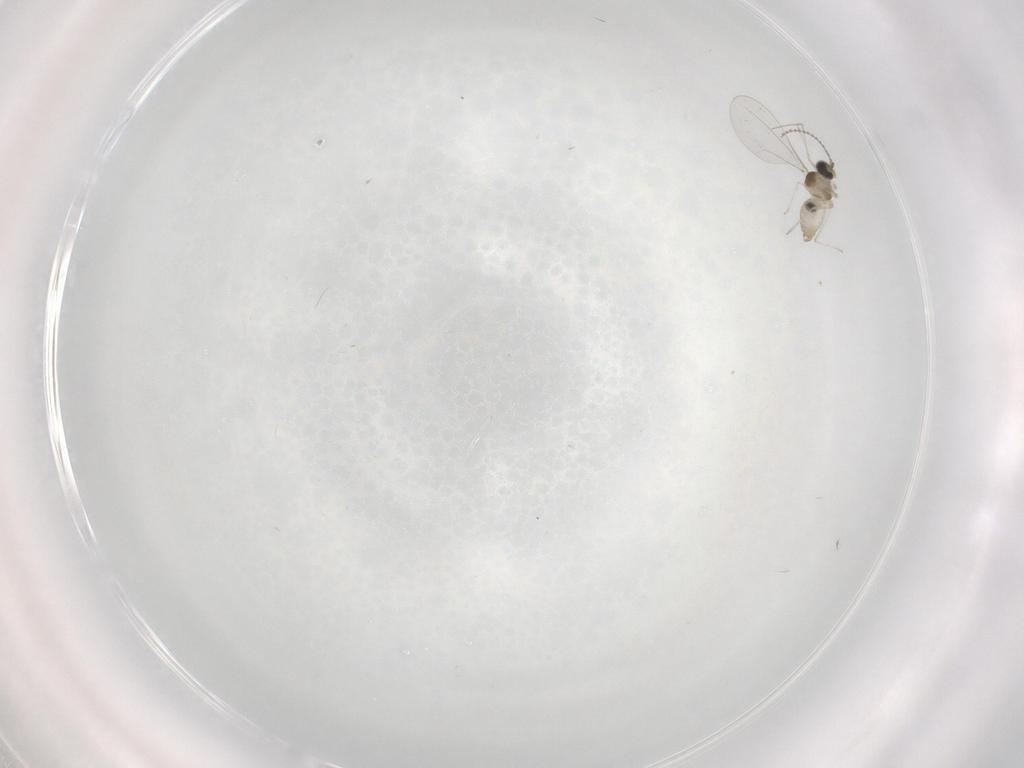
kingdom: Animalia
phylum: Arthropoda
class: Insecta
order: Diptera
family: Cecidomyiidae
